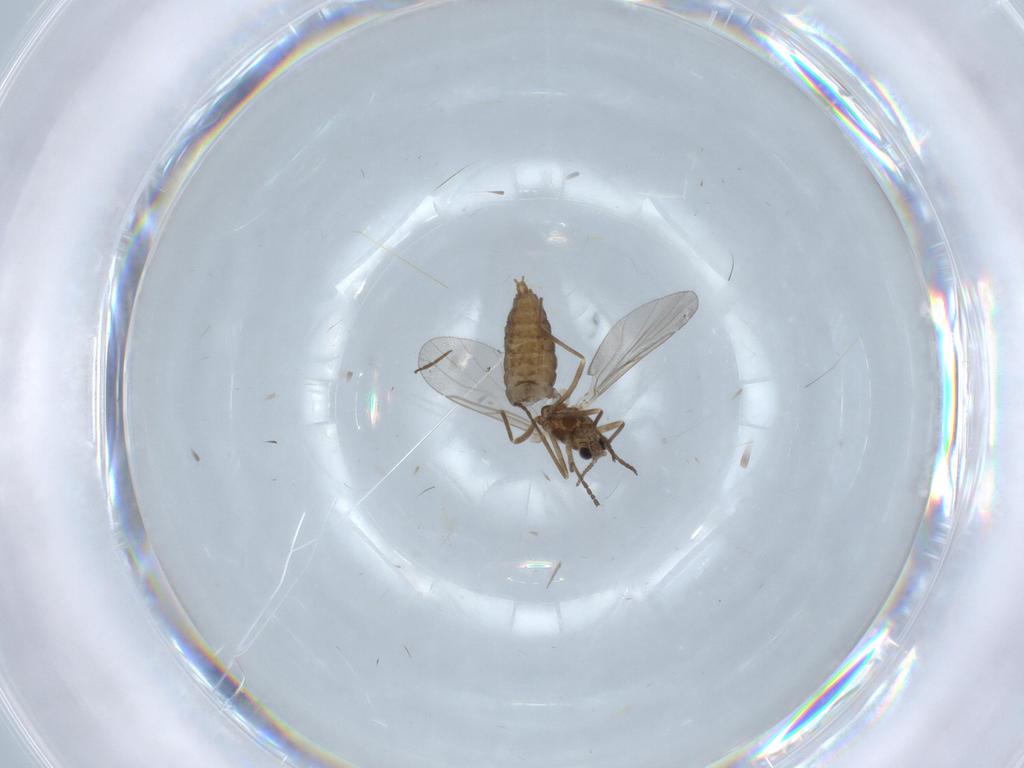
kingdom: Animalia
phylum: Arthropoda
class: Insecta
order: Diptera
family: Cecidomyiidae
